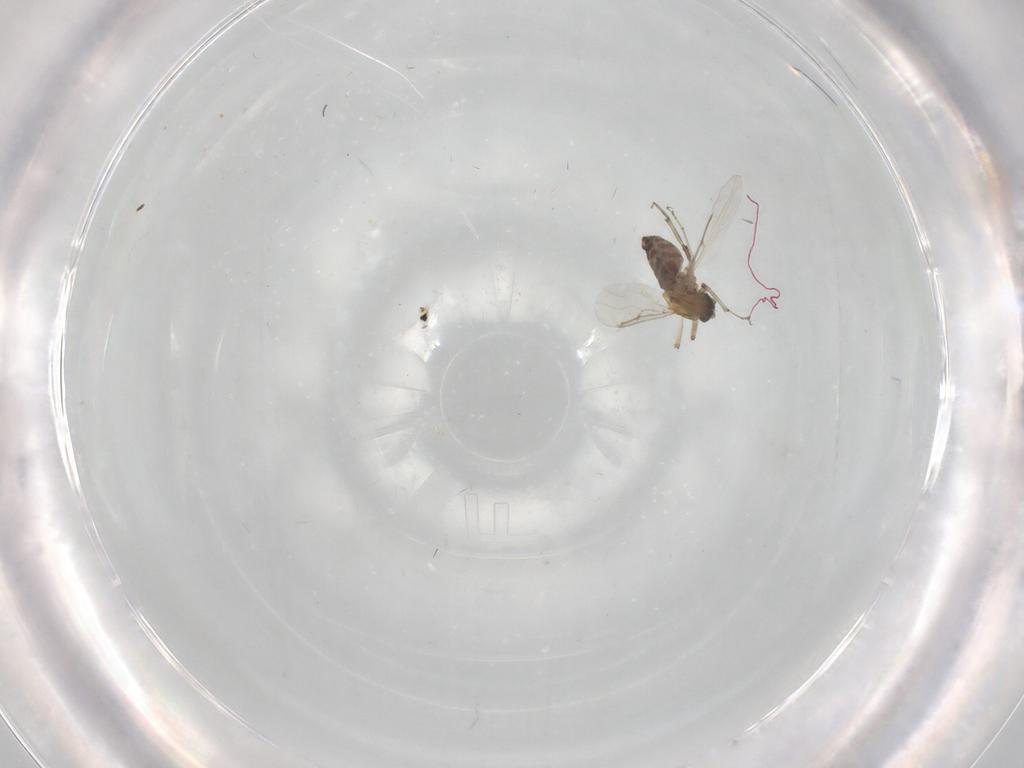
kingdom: Animalia
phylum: Arthropoda
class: Insecta
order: Diptera
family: Ceratopogonidae
